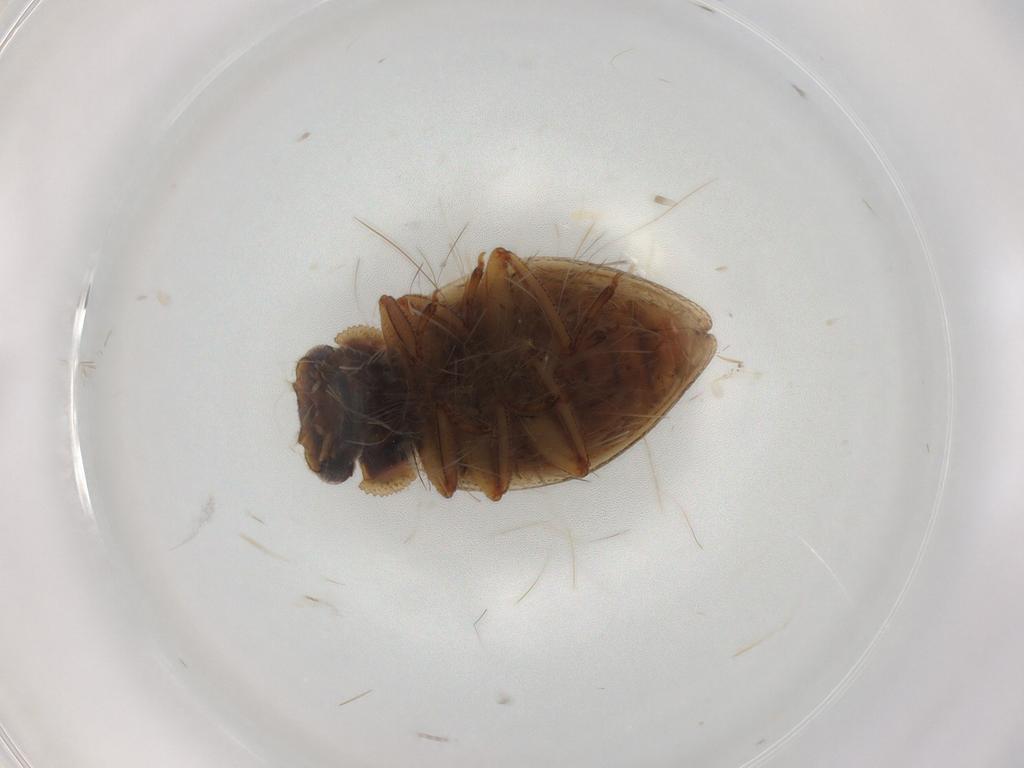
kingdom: Animalia
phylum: Arthropoda
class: Insecta
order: Coleoptera
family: Spercheidae
